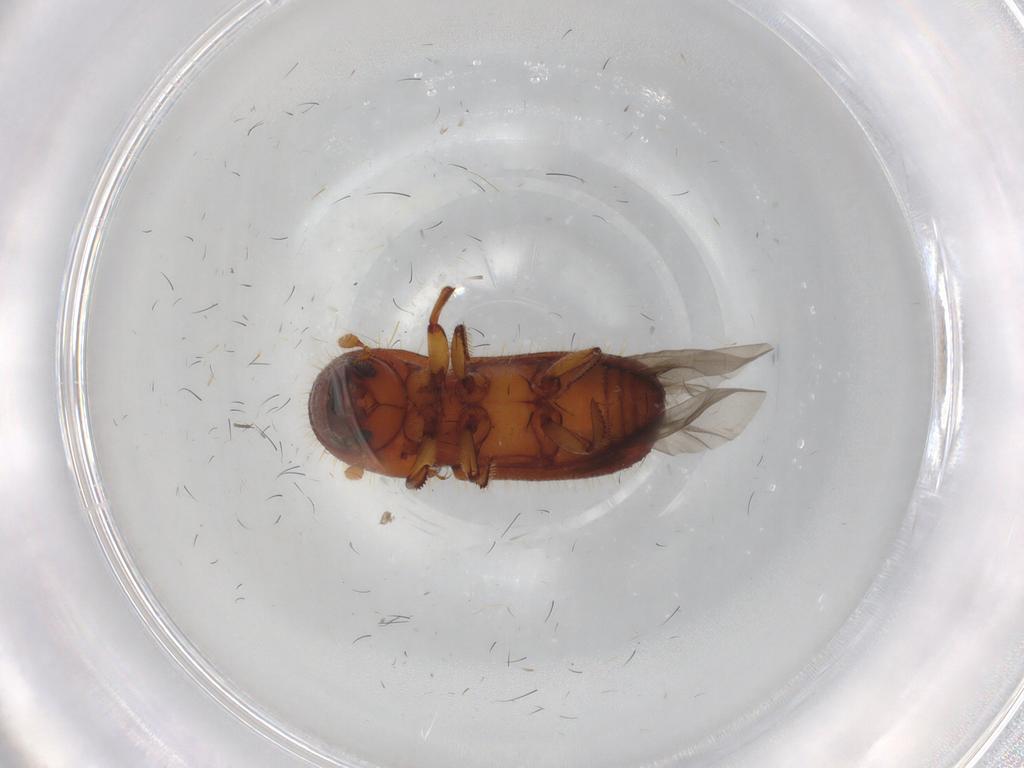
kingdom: Animalia
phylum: Arthropoda
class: Insecta
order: Coleoptera
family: Curculionidae
